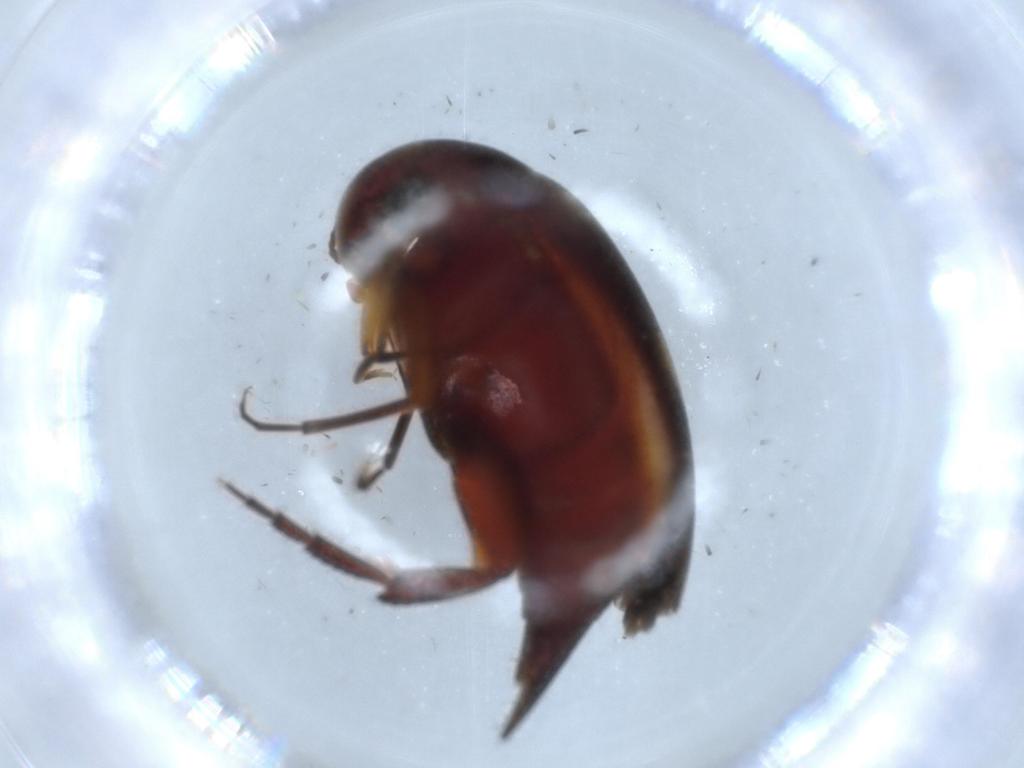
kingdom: Animalia
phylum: Arthropoda
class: Insecta
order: Coleoptera
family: Mordellidae
